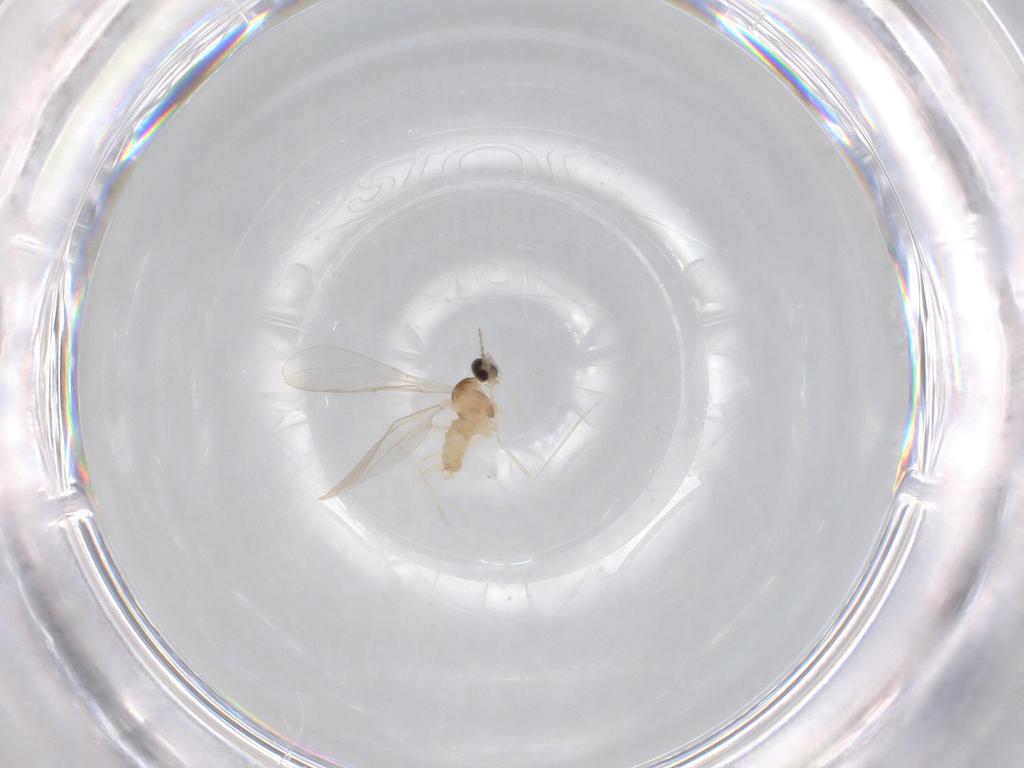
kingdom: Animalia
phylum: Arthropoda
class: Insecta
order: Diptera
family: Cecidomyiidae
